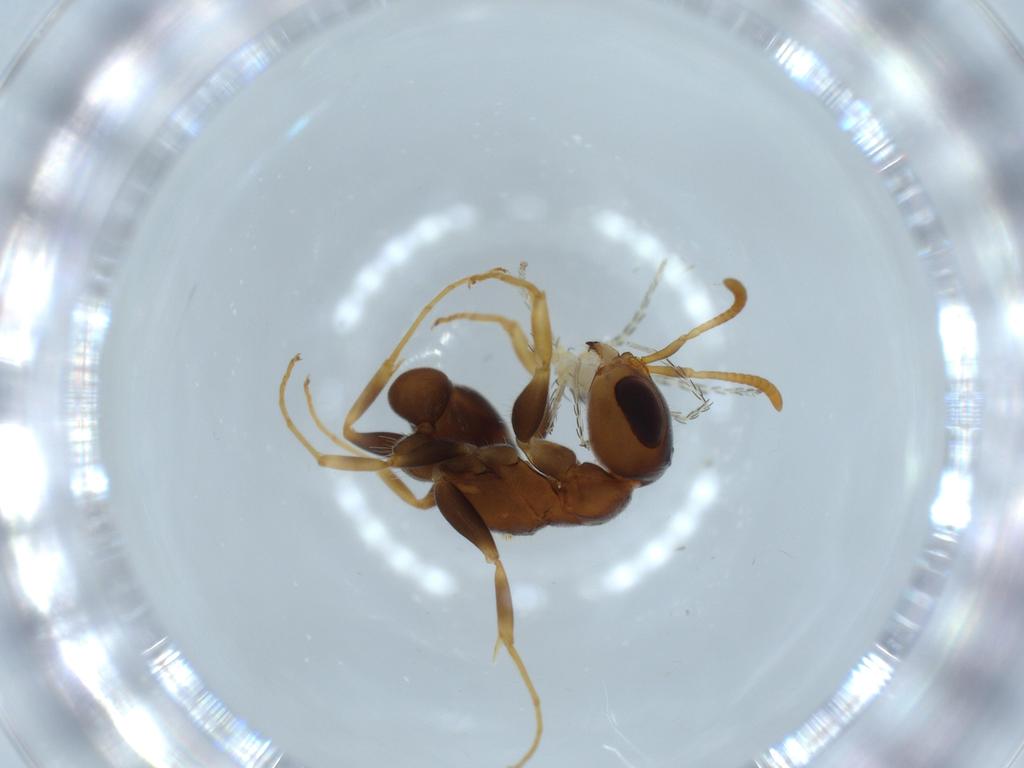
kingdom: Animalia
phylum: Arthropoda
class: Insecta
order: Hymenoptera
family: Formicidae
